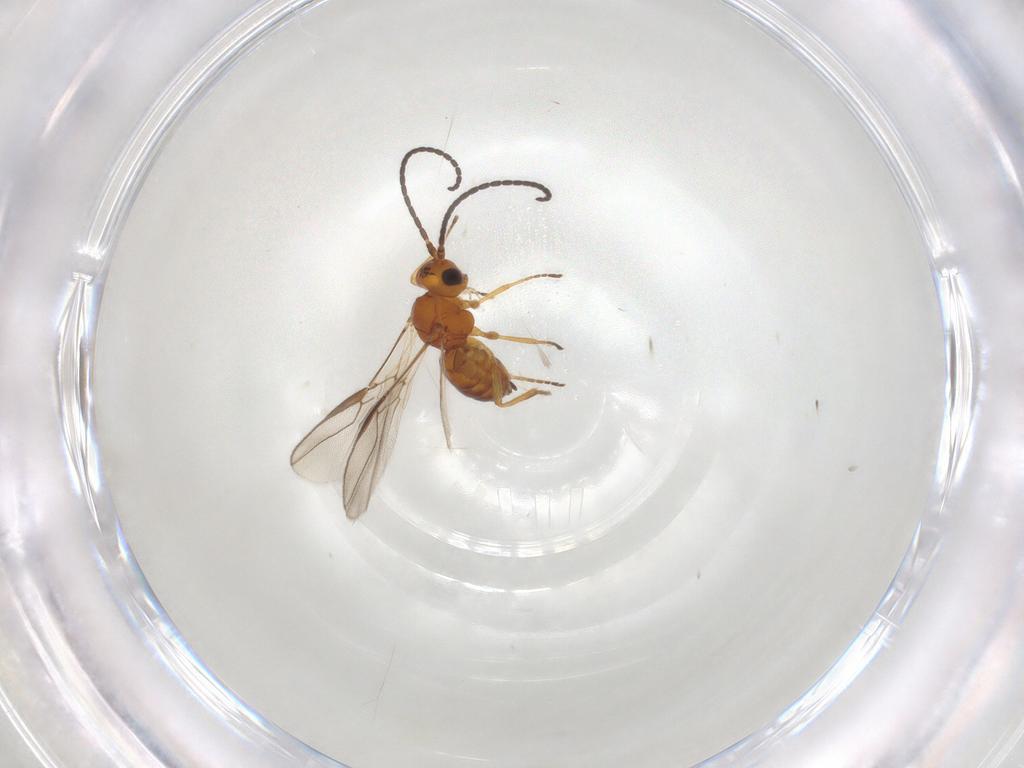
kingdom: Animalia
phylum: Arthropoda
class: Insecta
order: Hymenoptera
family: Braconidae
